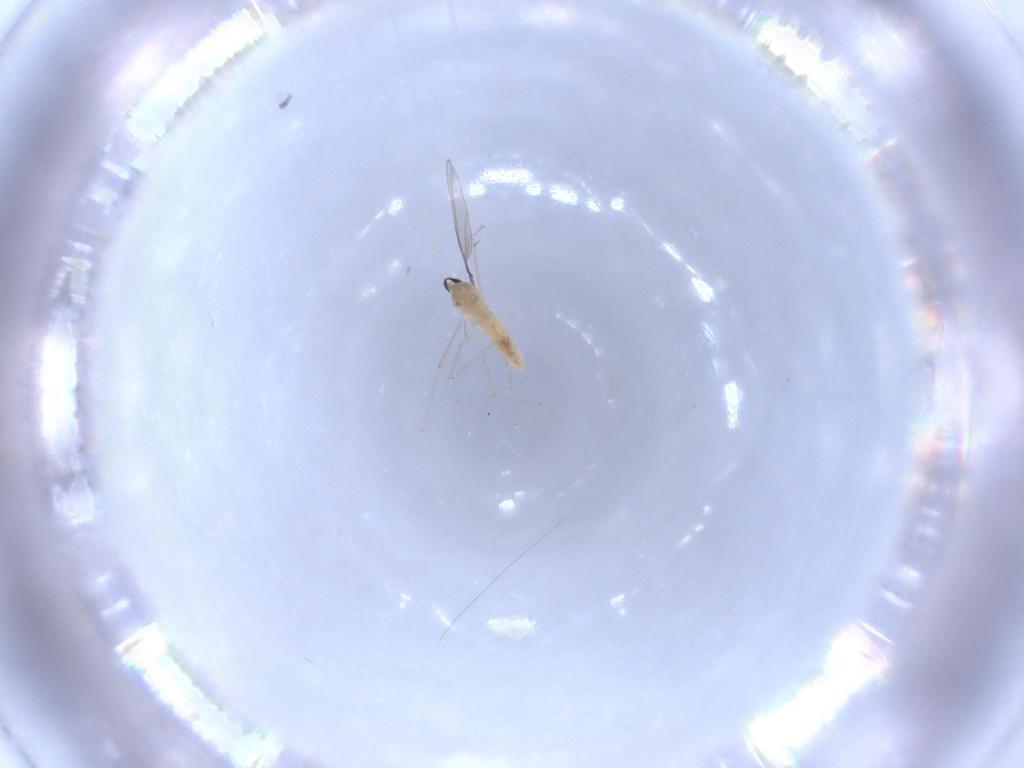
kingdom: Animalia
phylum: Arthropoda
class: Insecta
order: Diptera
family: Cecidomyiidae
